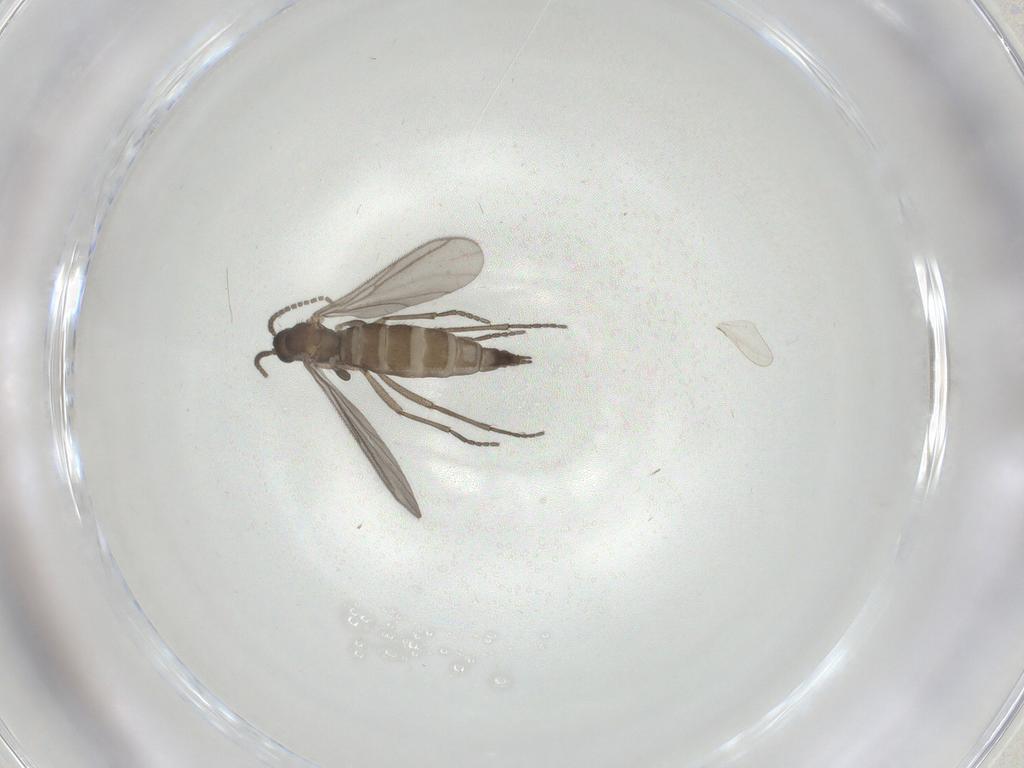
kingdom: Animalia
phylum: Arthropoda
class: Insecta
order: Diptera
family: Sciaridae
